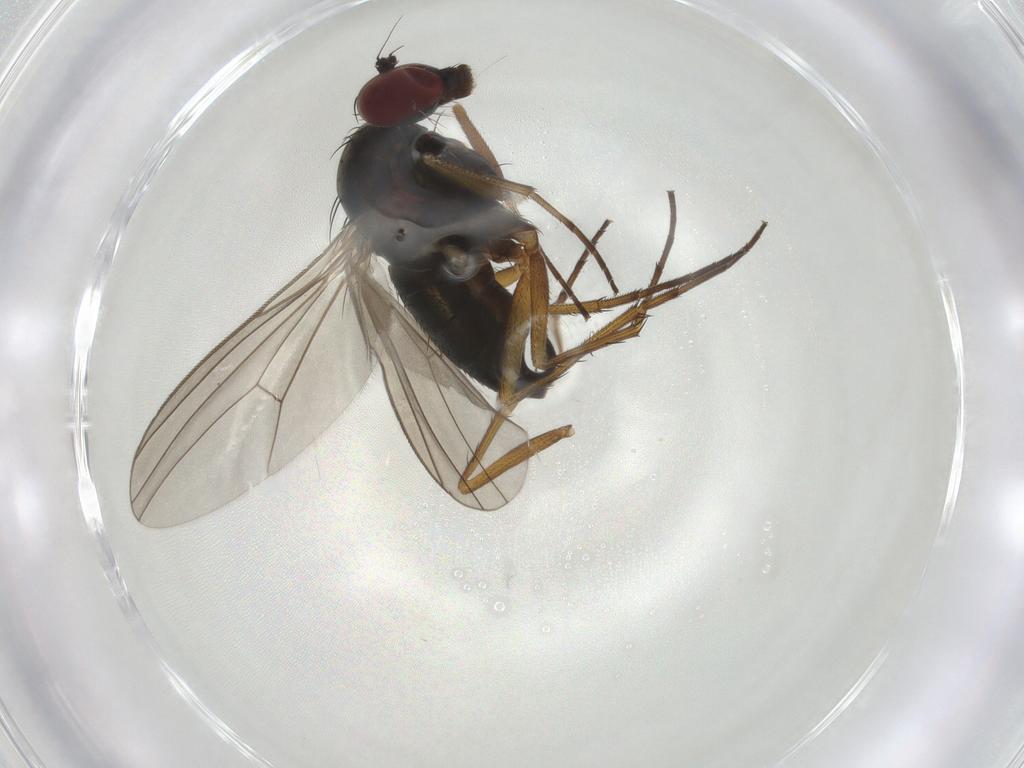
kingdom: Animalia
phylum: Arthropoda
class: Insecta
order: Diptera
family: Dolichopodidae
